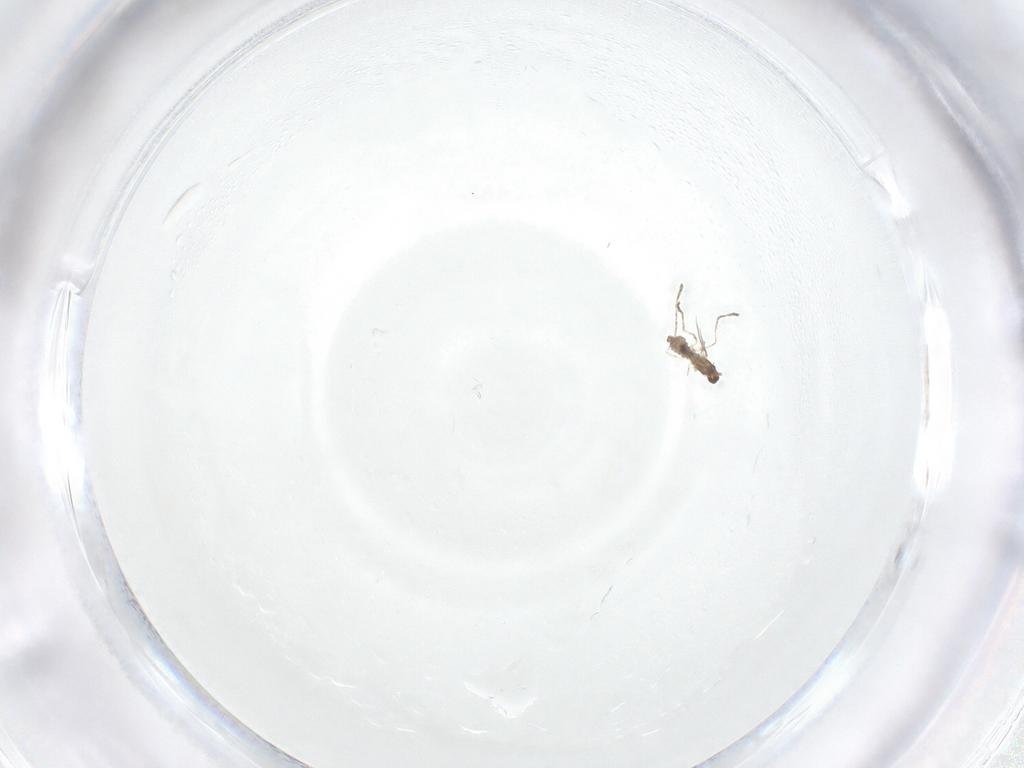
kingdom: Animalia
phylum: Arthropoda
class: Insecta
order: Diptera
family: Cecidomyiidae
